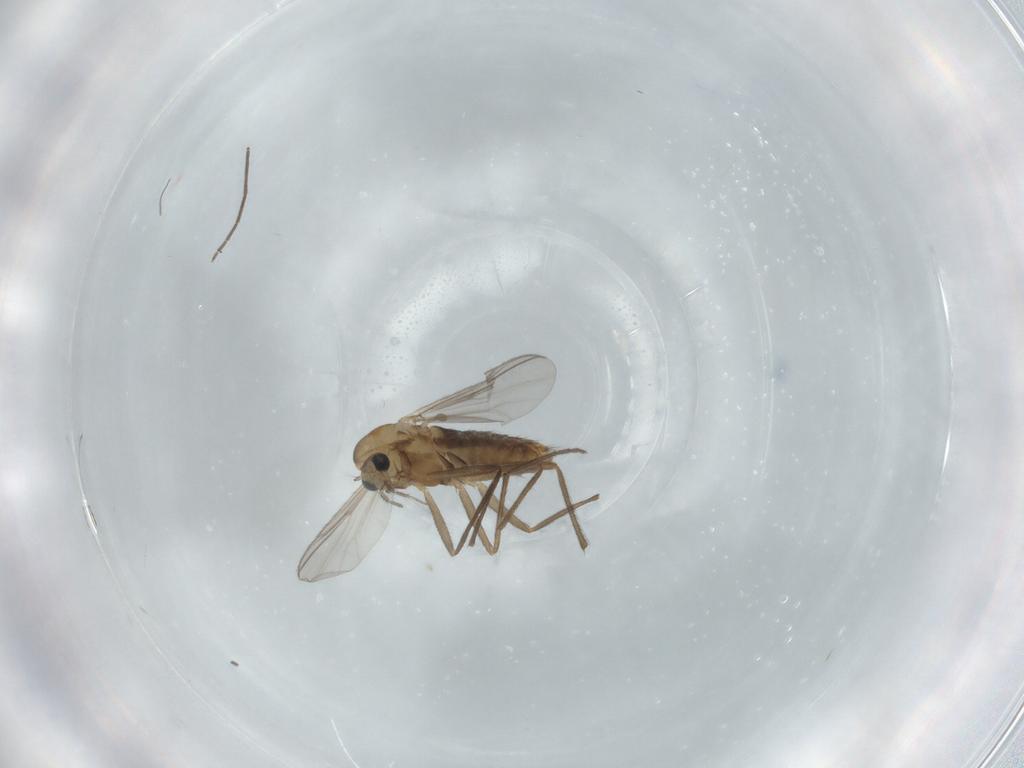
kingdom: Animalia
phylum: Arthropoda
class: Insecta
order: Diptera
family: Chironomidae
